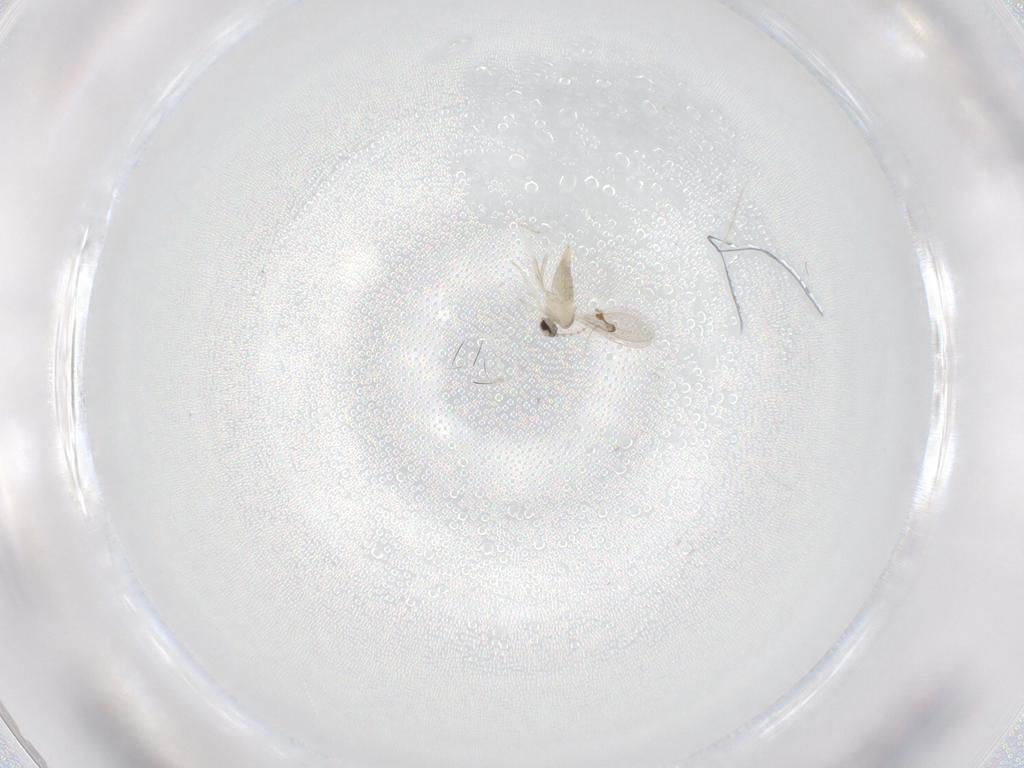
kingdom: Animalia
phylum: Arthropoda
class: Insecta
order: Diptera
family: Cecidomyiidae
